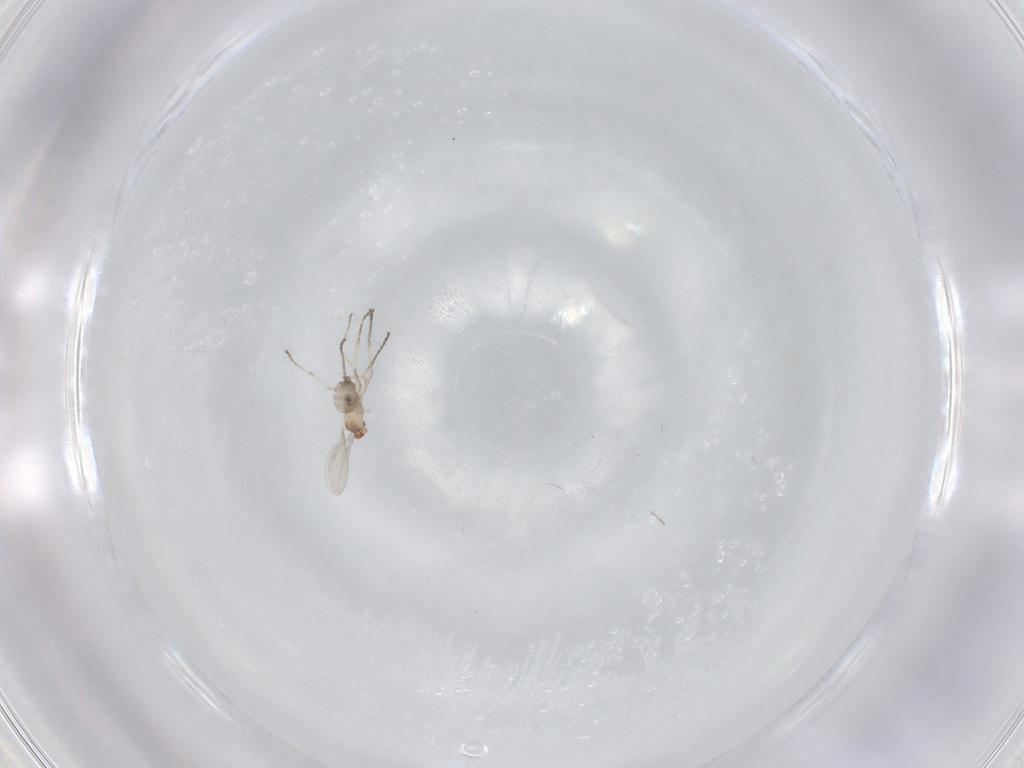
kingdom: Animalia
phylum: Arthropoda
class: Insecta
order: Diptera
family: Cecidomyiidae
